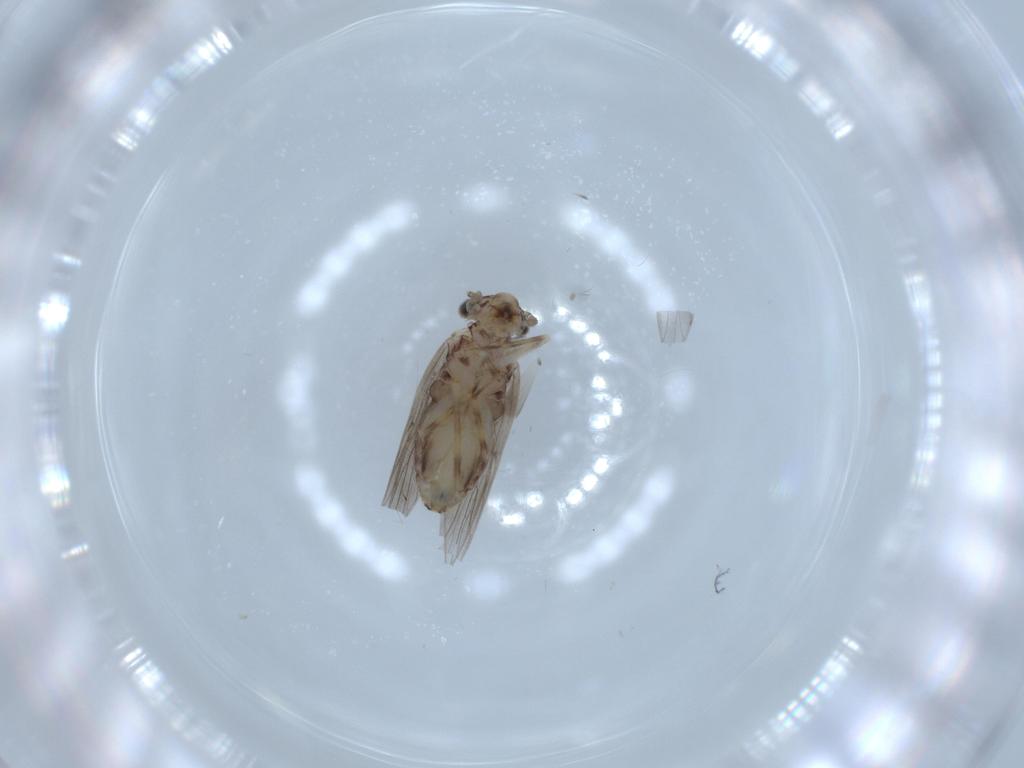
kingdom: Animalia
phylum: Arthropoda
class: Insecta
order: Psocodea
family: Lepidopsocidae
